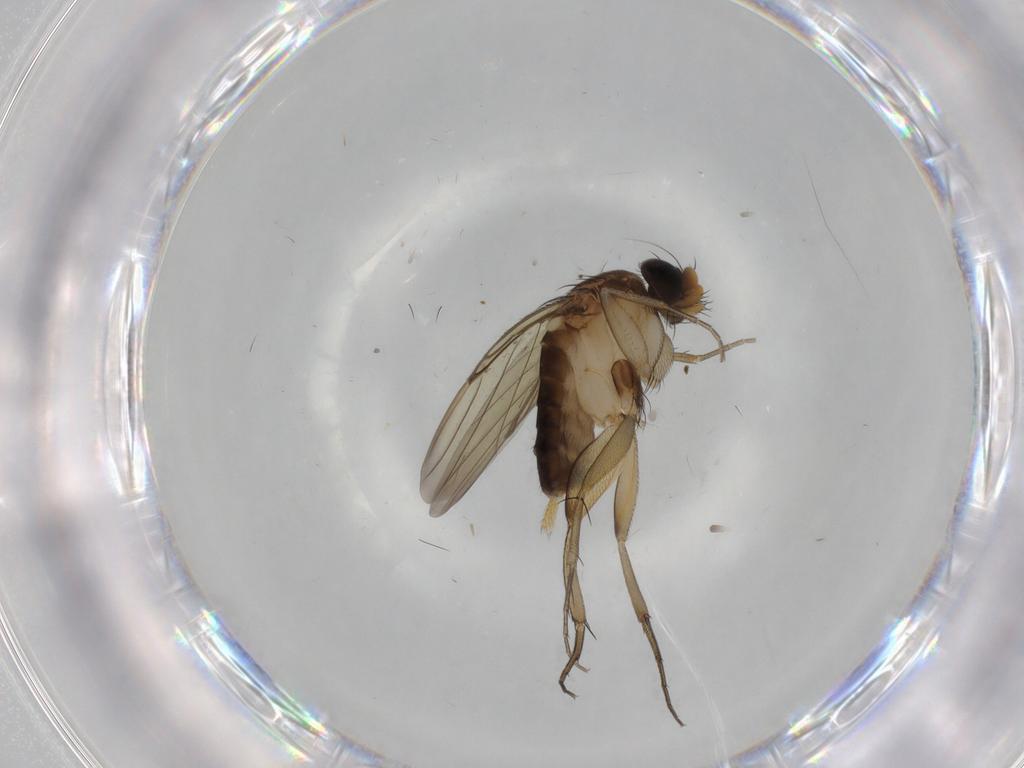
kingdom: Animalia
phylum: Arthropoda
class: Insecta
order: Diptera
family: Phoridae
